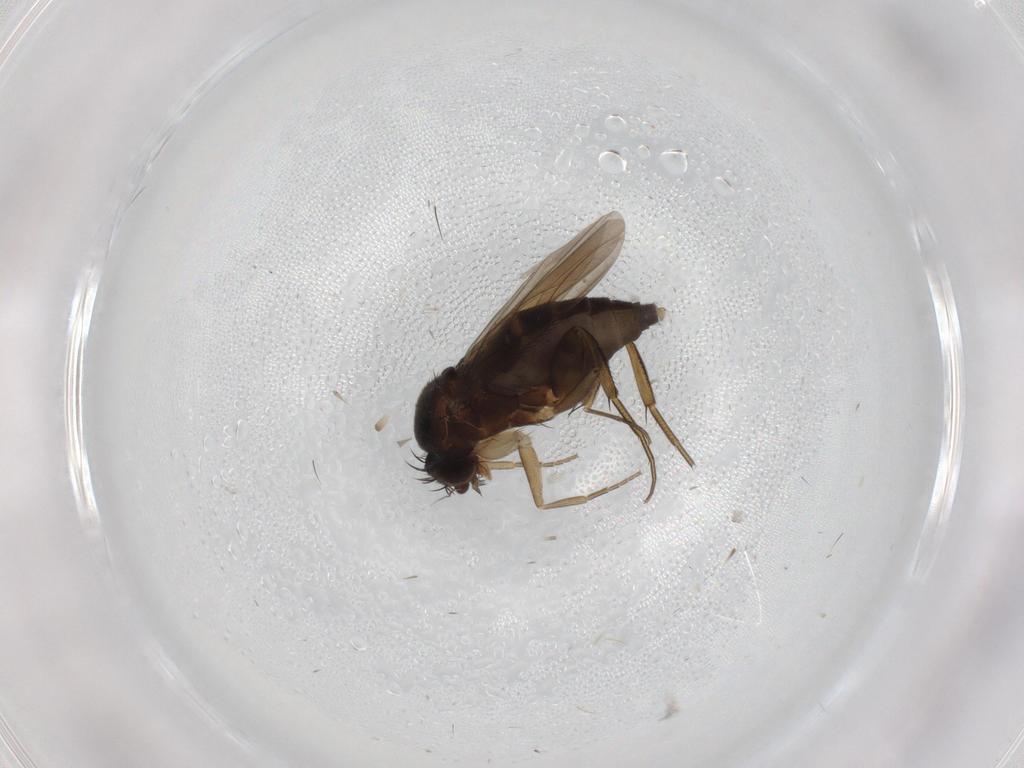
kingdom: Animalia
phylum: Arthropoda
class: Insecta
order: Diptera
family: Phoridae
